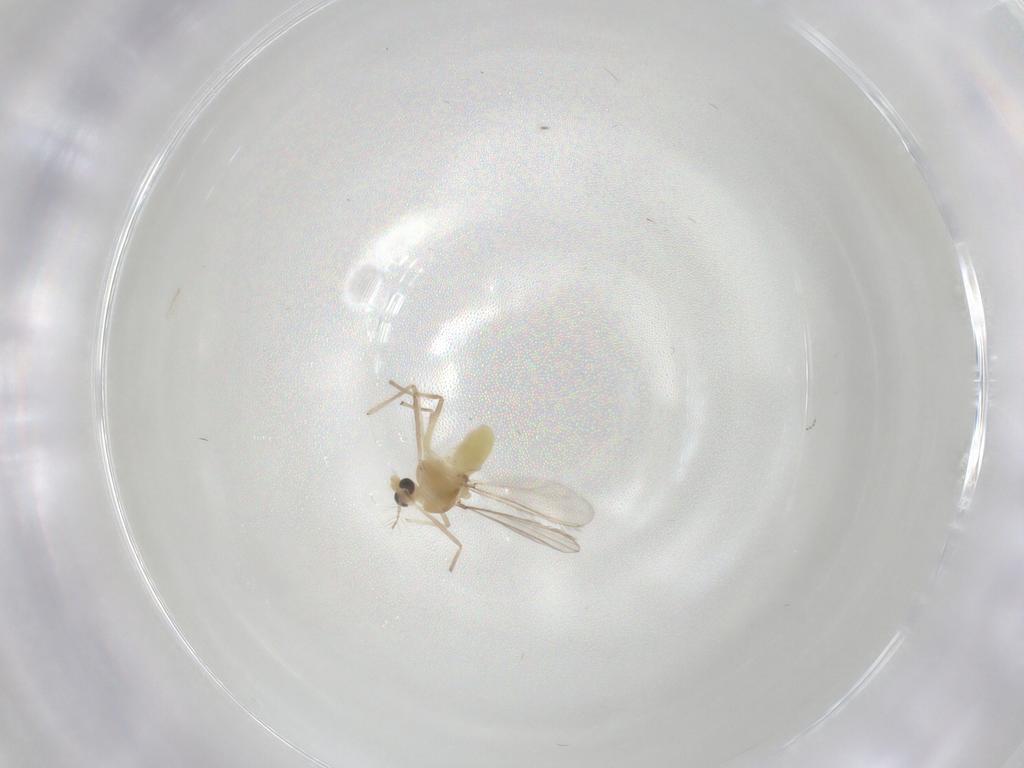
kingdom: Animalia
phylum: Arthropoda
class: Insecta
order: Diptera
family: Chironomidae
